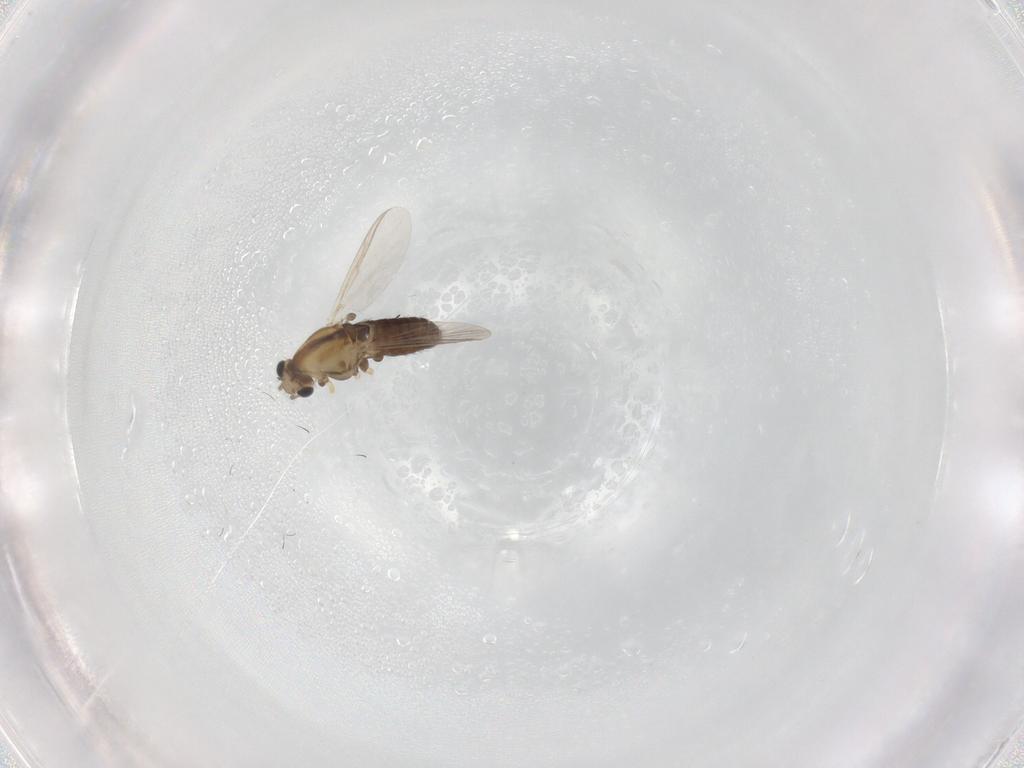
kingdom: Animalia
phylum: Arthropoda
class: Insecta
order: Diptera
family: Chironomidae
